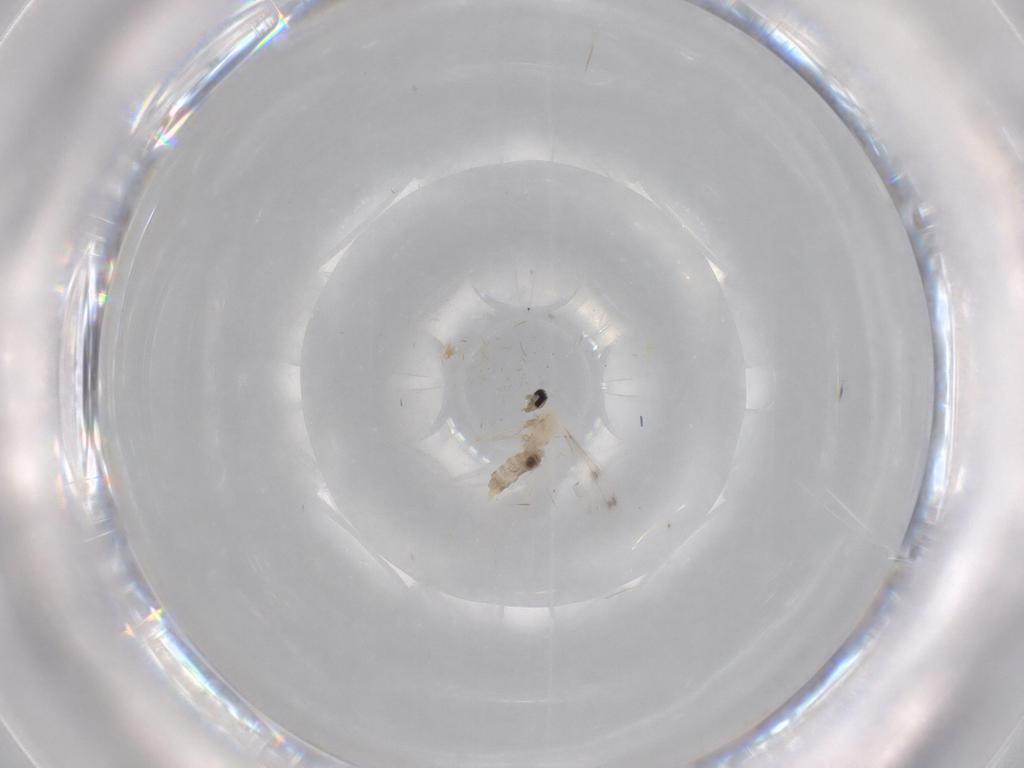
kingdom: Animalia
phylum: Arthropoda
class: Insecta
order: Diptera
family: Cecidomyiidae
